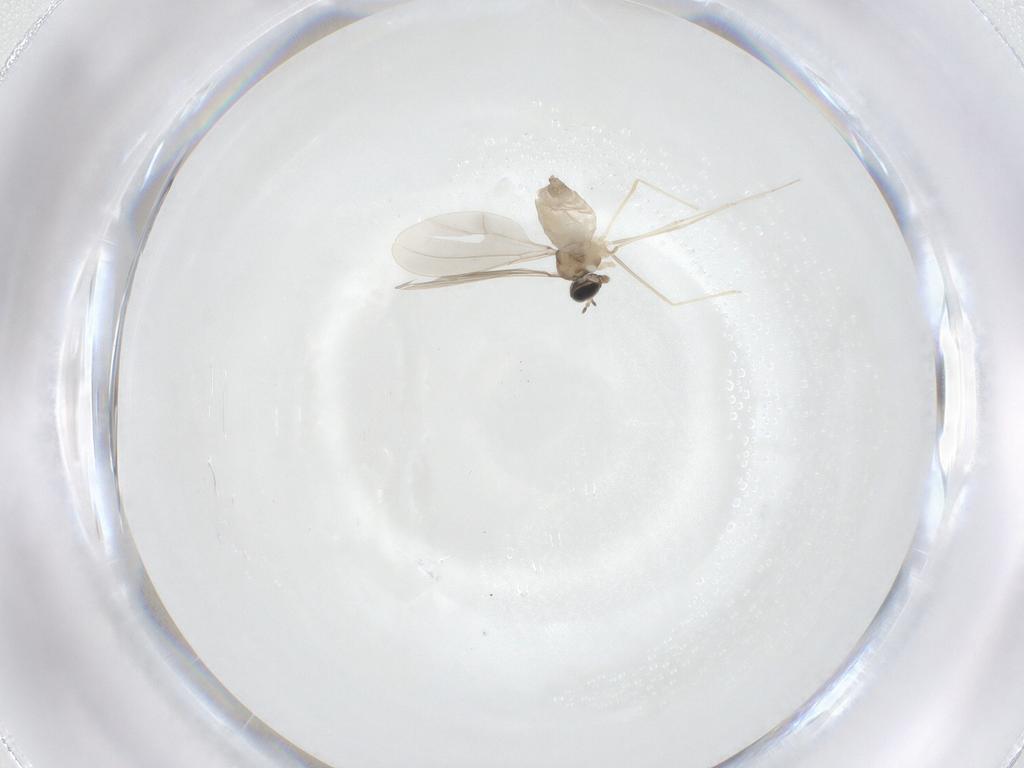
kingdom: Animalia
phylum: Arthropoda
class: Insecta
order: Diptera
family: Cecidomyiidae
